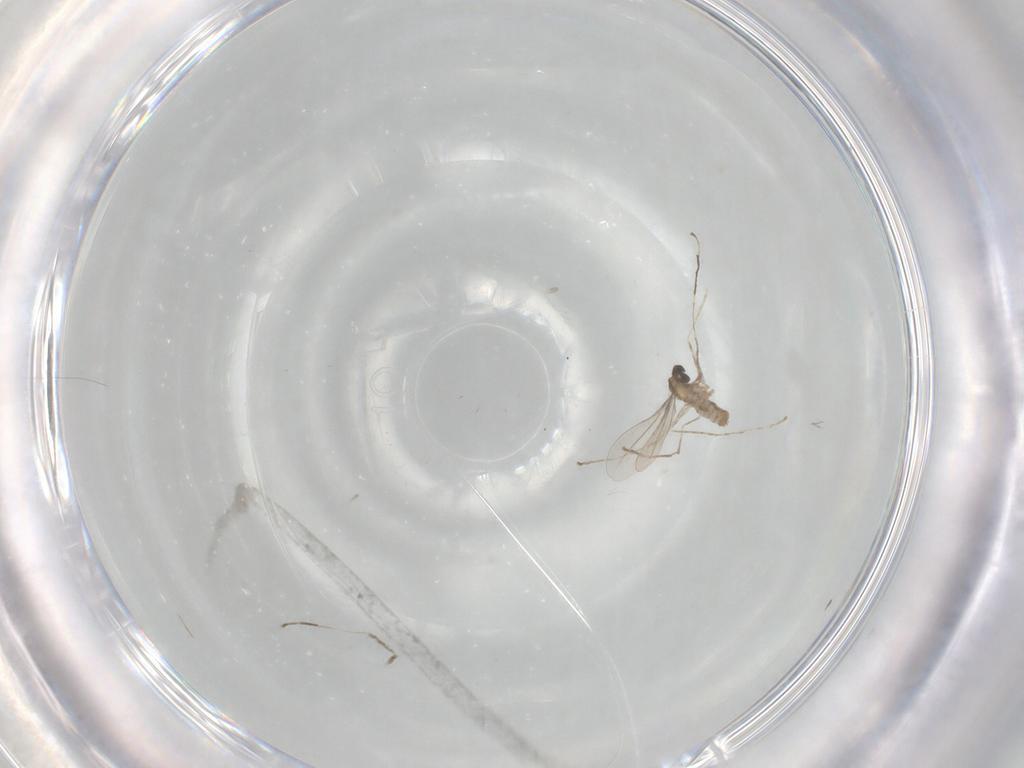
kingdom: Animalia
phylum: Arthropoda
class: Insecta
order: Diptera
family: Cecidomyiidae
